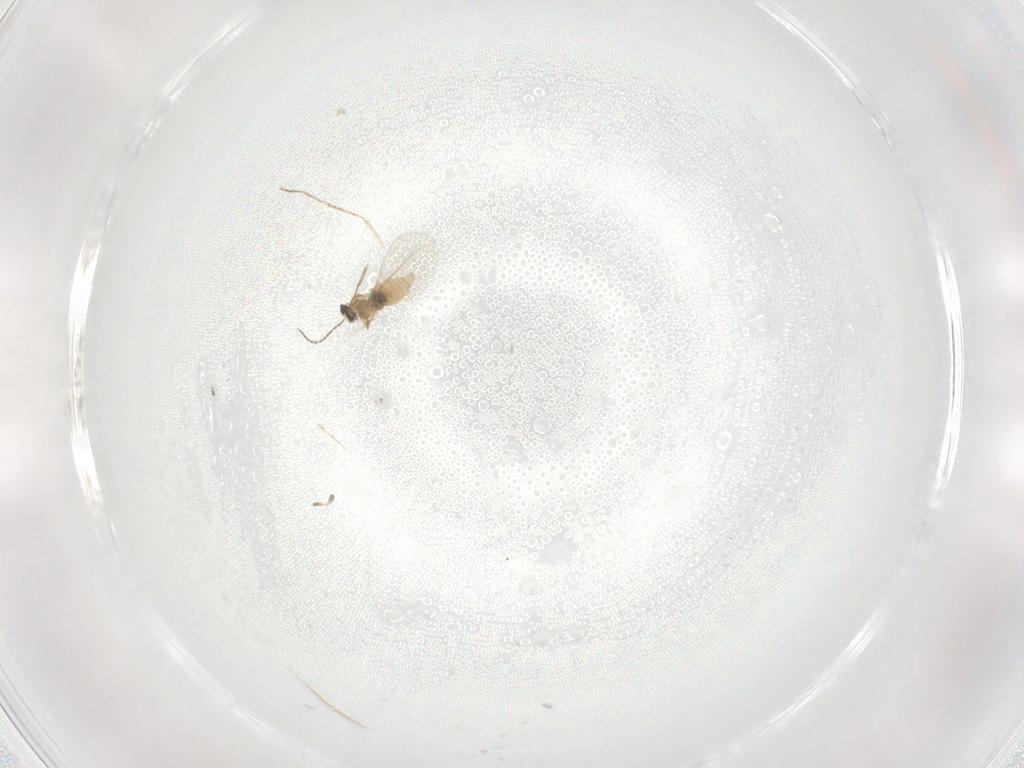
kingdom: Animalia
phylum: Arthropoda
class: Insecta
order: Diptera
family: Cecidomyiidae
